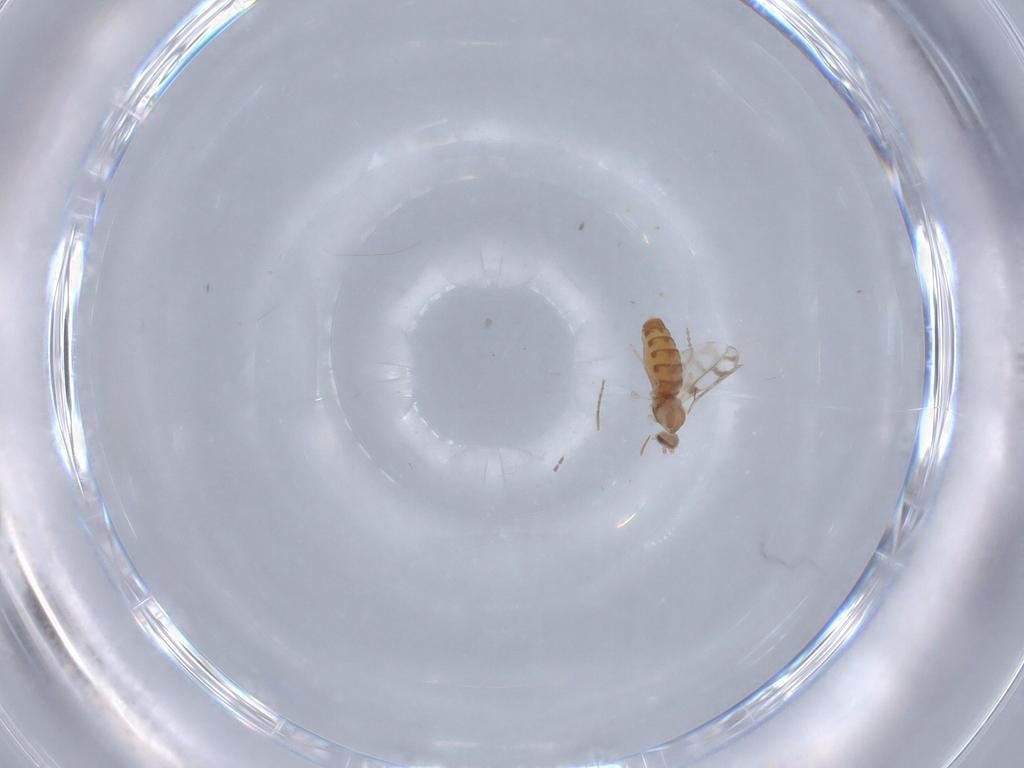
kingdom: Animalia
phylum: Arthropoda
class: Insecta
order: Diptera
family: Cecidomyiidae
